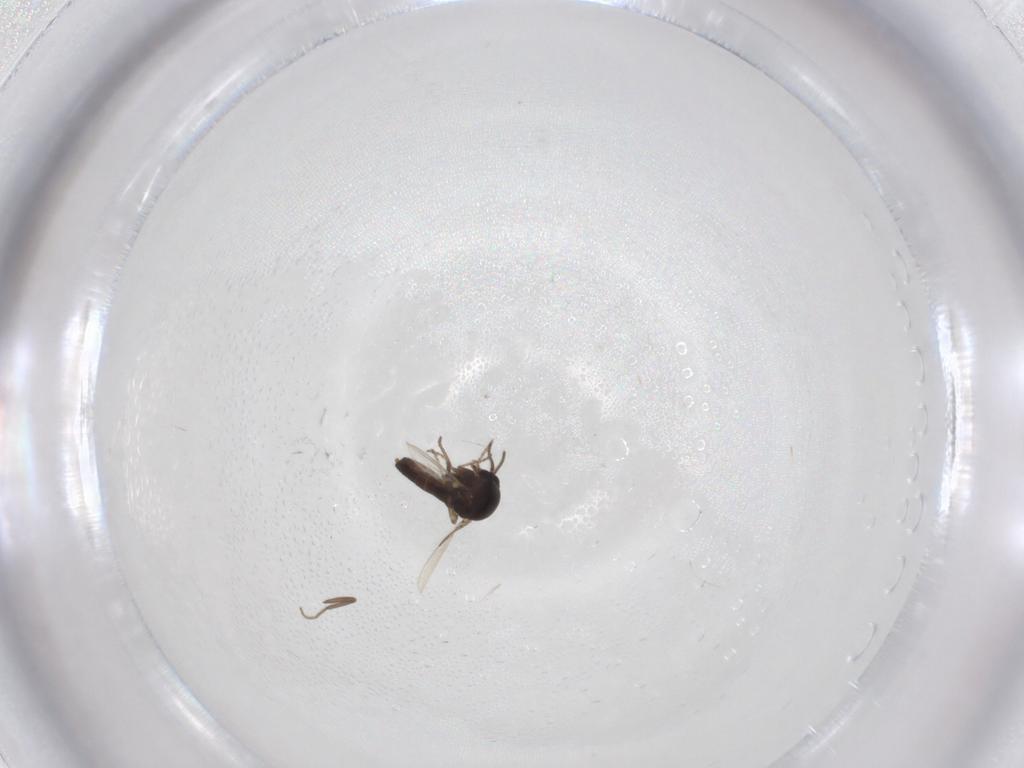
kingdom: Animalia
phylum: Arthropoda
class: Insecta
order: Diptera
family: Ceratopogonidae
